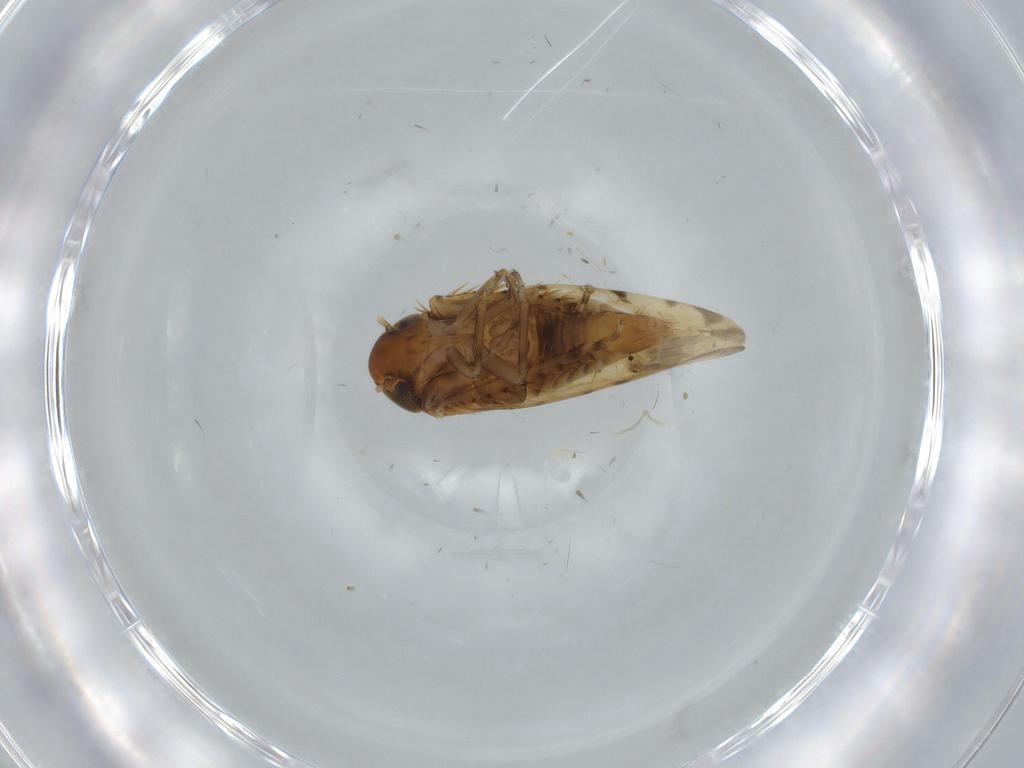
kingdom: Animalia
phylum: Arthropoda
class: Insecta
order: Hemiptera
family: Cicadellidae
